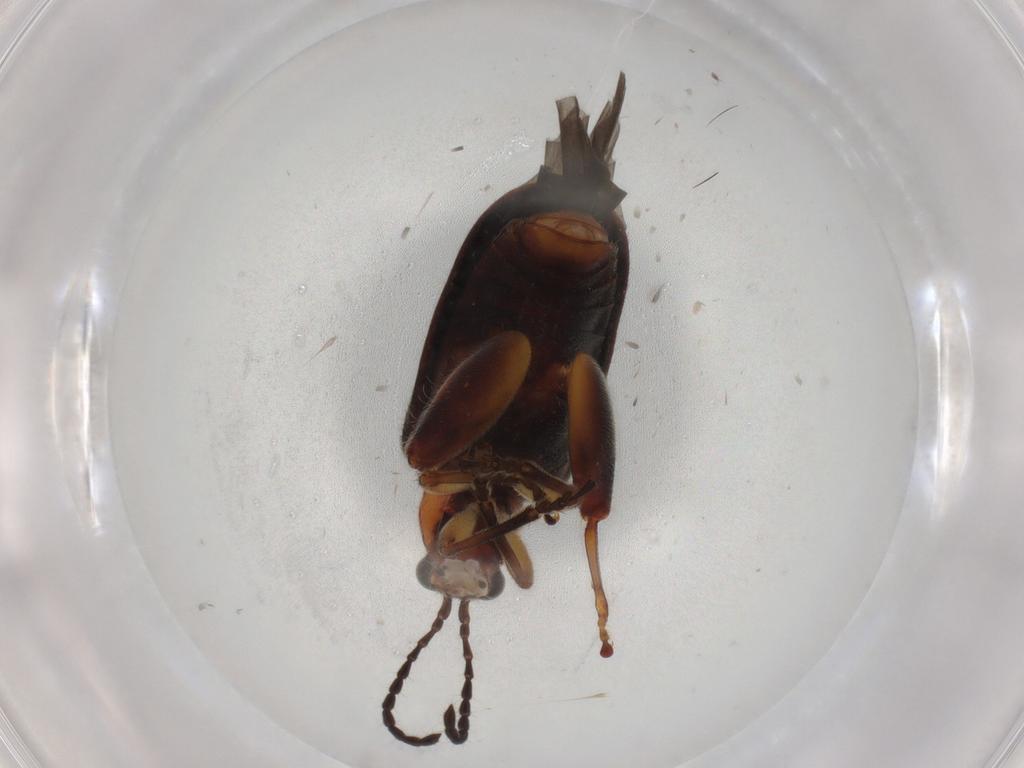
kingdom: Animalia
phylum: Arthropoda
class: Insecta
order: Coleoptera
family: Chrysomelidae
